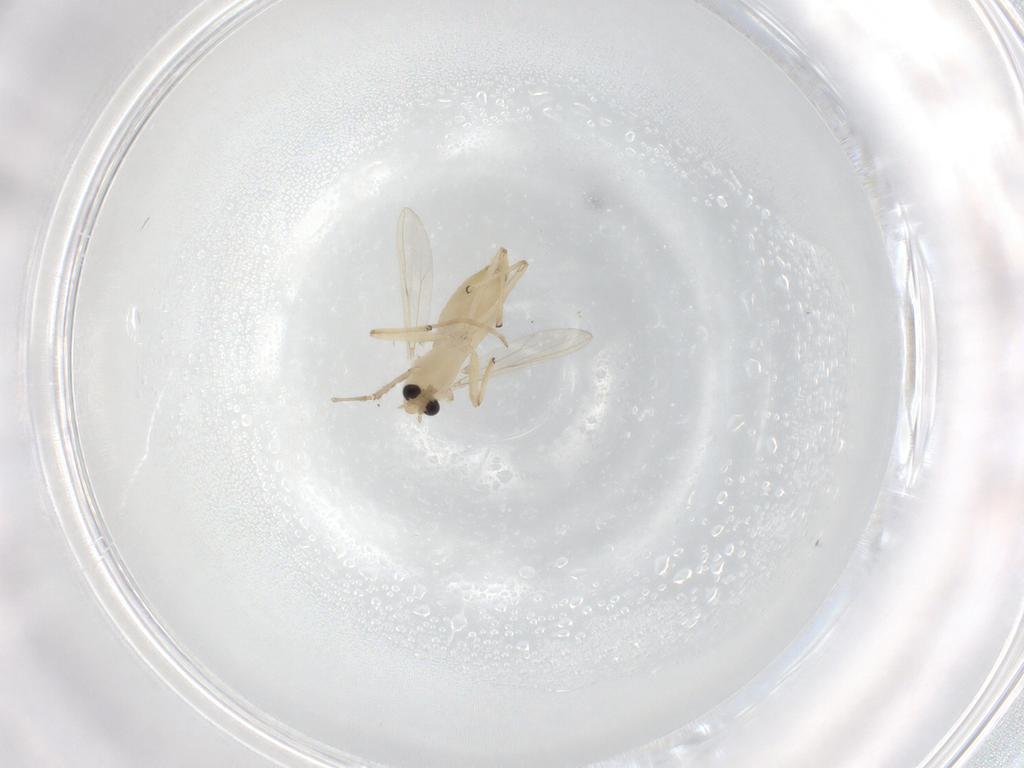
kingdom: Animalia
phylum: Arthropoda
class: Insecta
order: Diptera
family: Chironomidae
